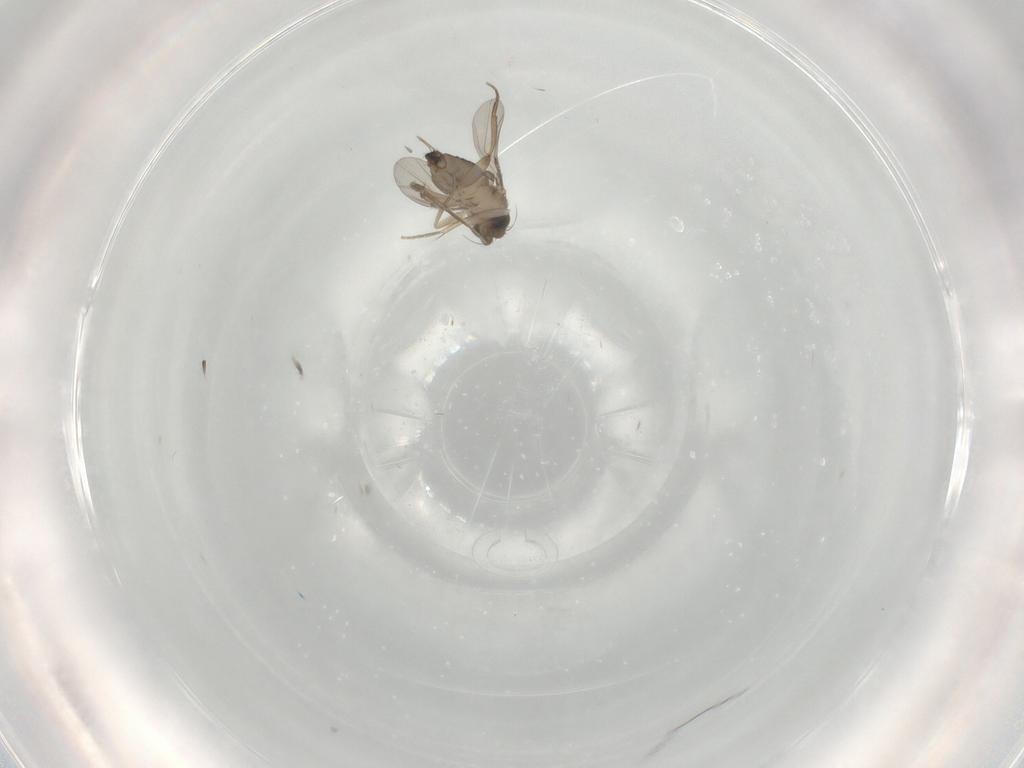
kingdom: Animalia
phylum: Arthropoda
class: Insecta
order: Diptera
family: Phoridae
